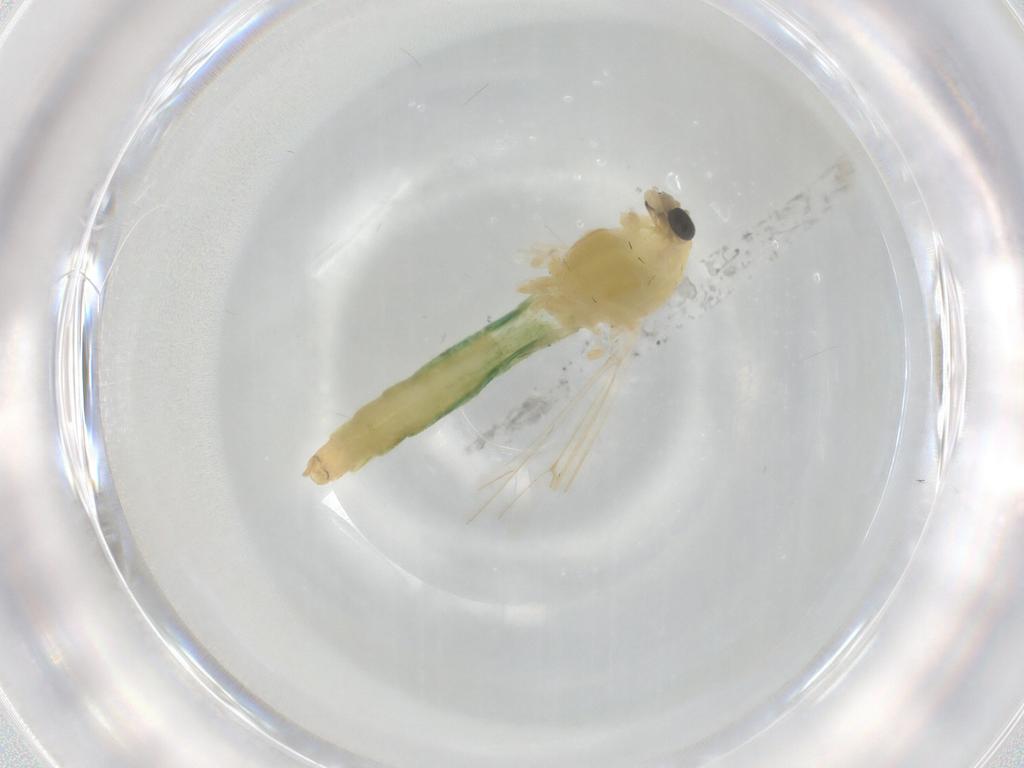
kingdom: Animalia
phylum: Arthropoda
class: Insecta
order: Diptera
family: Chironomidae
